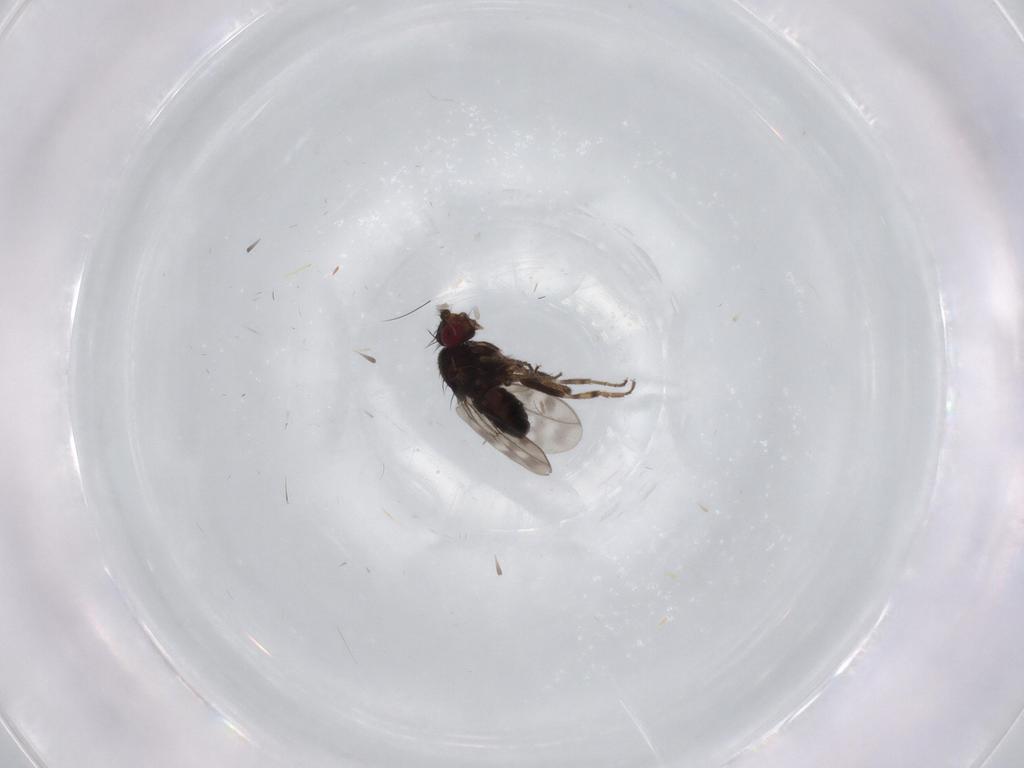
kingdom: Animalia
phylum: Arthropoda
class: Insecta
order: Diptera
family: Sphaeroceridae
